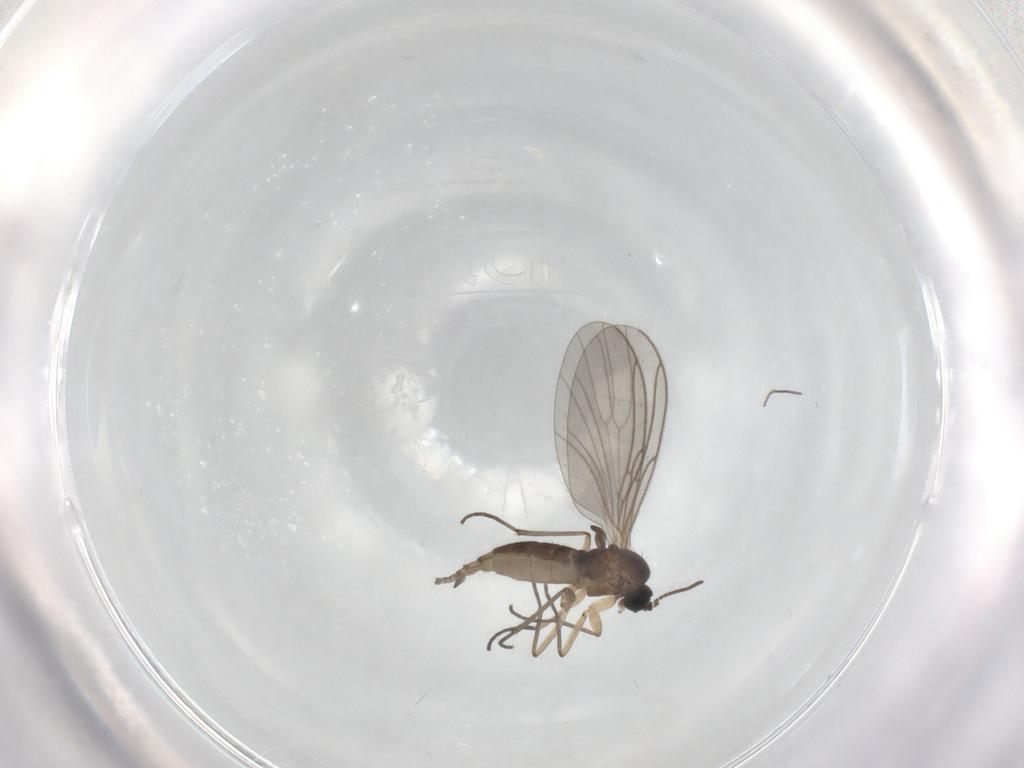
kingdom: Animalia
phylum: Arthropoda
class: Insecta
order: Diptera
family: Sciaridae
